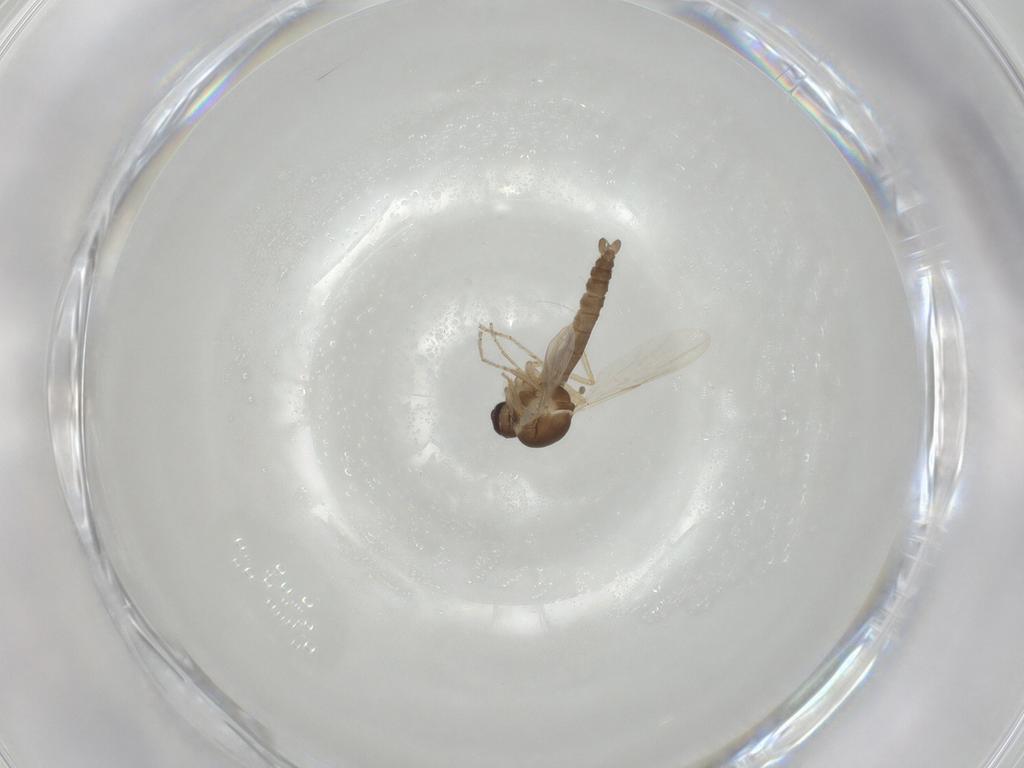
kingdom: Animalia
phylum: Arthropoda
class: Insecta
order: Diptera
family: Ceratopogonidae
